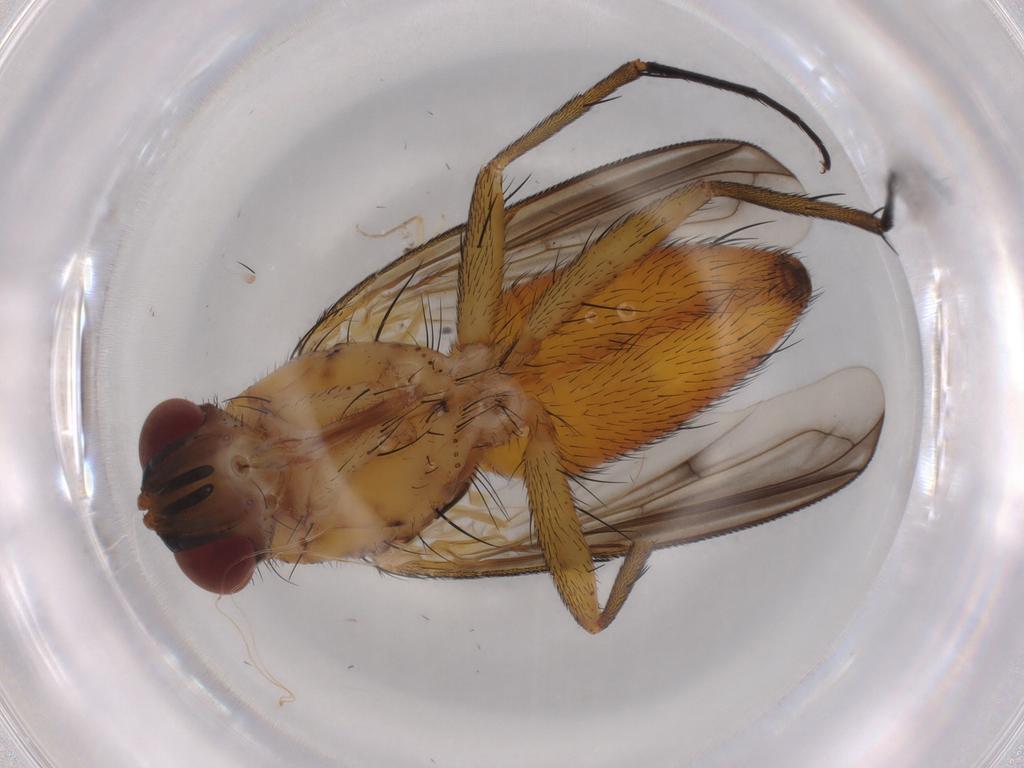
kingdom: Animalia
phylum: Arthropoda
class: Insecta
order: Diptera
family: Tachinidae
